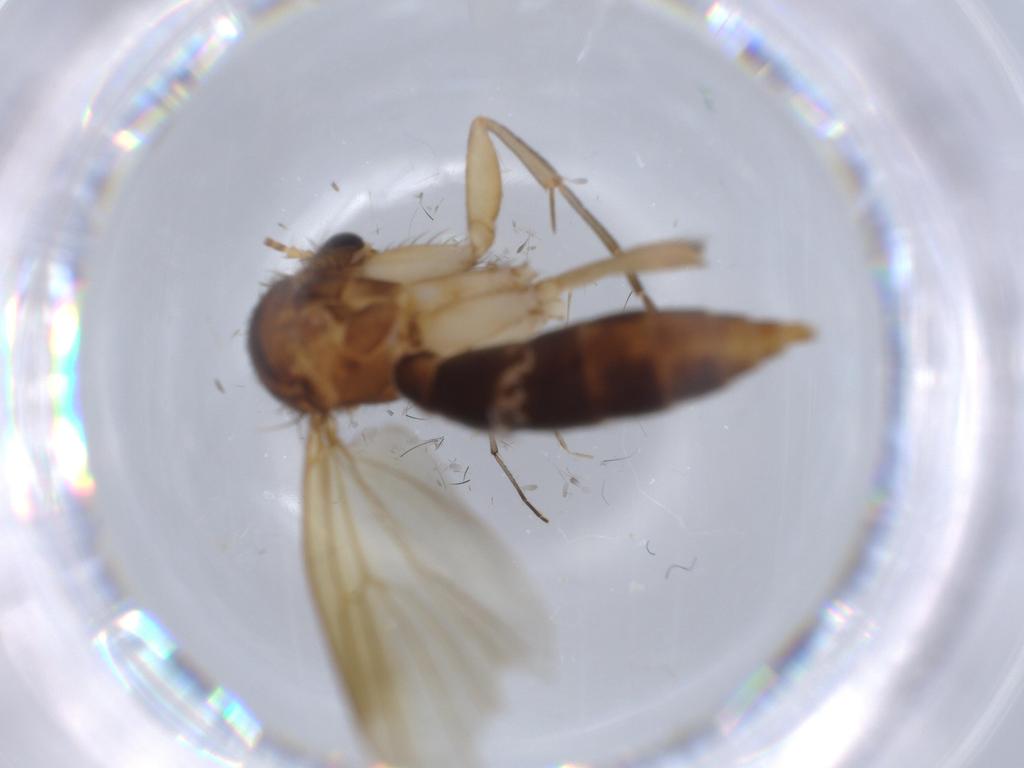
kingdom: Animalia
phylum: Arthropoda
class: Insecta
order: Diptera
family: Mycetophilidae
